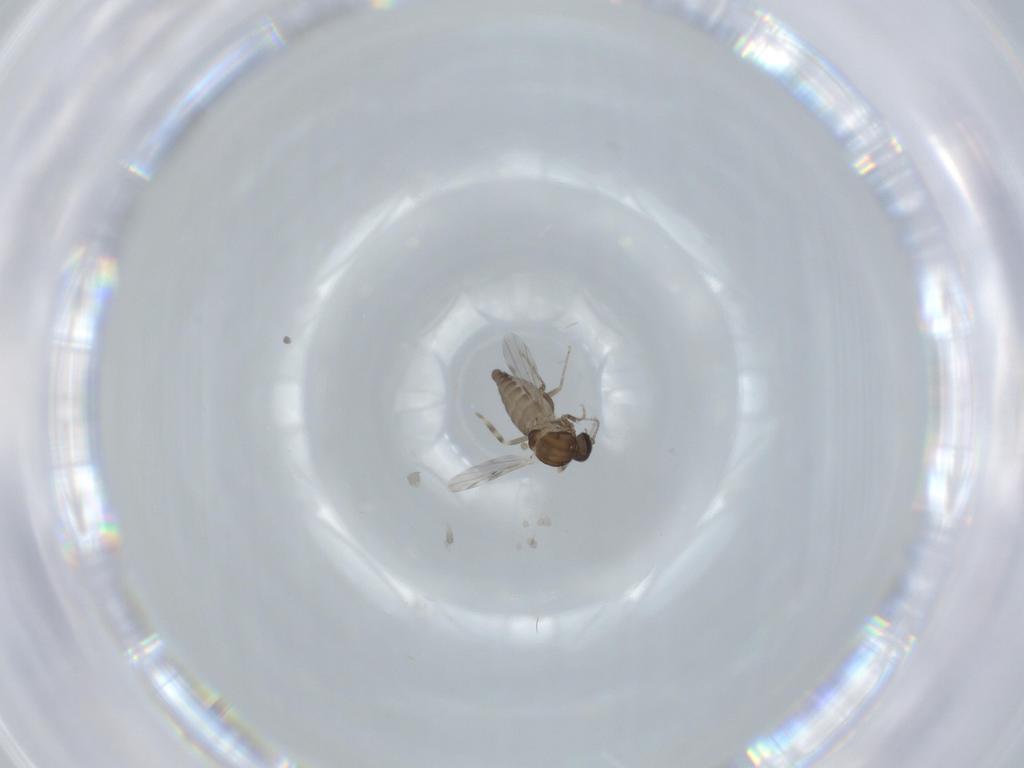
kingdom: Animalia
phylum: Arthropoda
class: Insecta
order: Diptera
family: Ceratopogonidae
